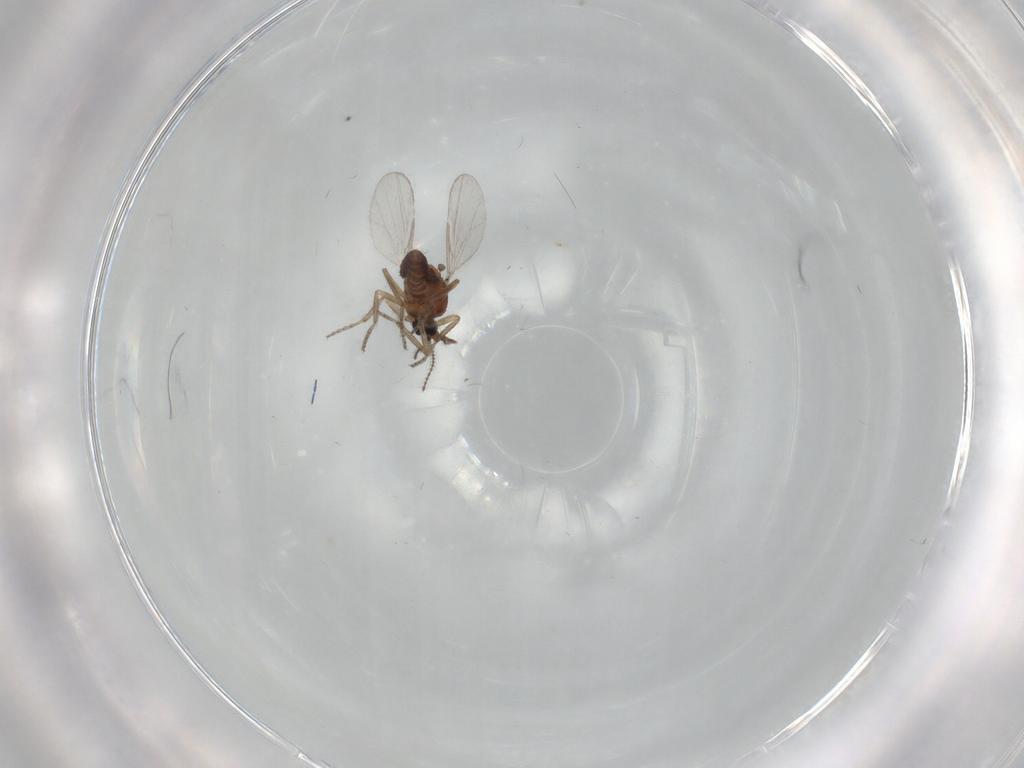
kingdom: Animalia
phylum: Arthropoda
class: Insecta
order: Diptera
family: Ceratopogonidae
